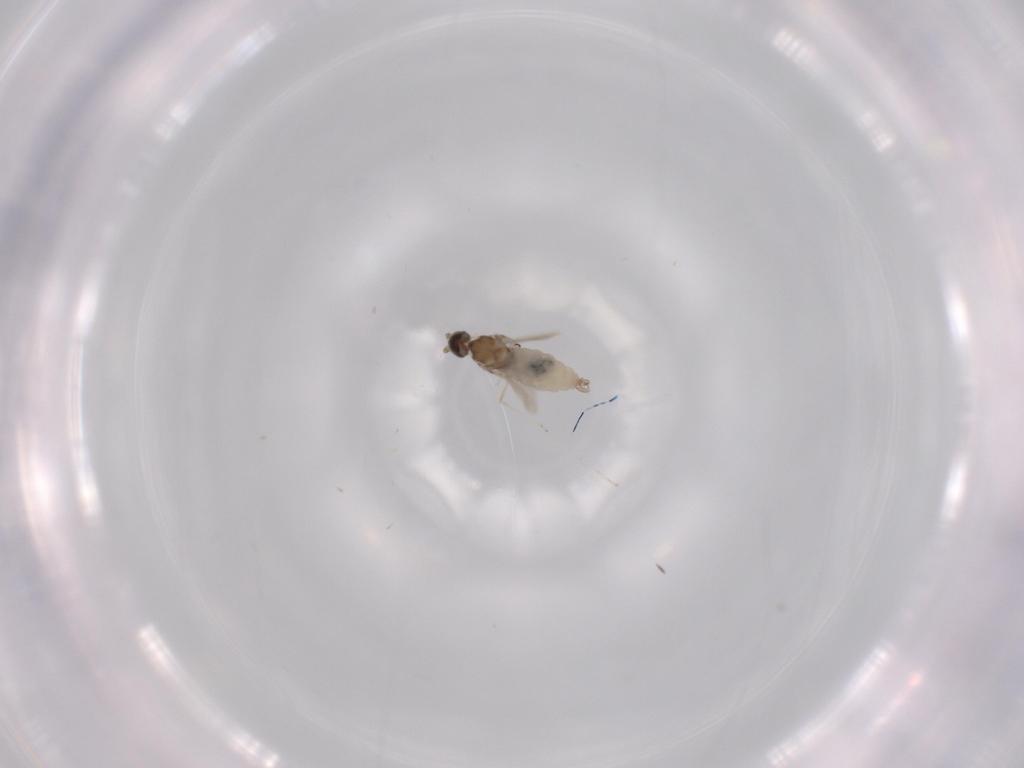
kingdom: Animalia
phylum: Arthropoda
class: Insecta
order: Diptera
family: Cecidomyiidae
